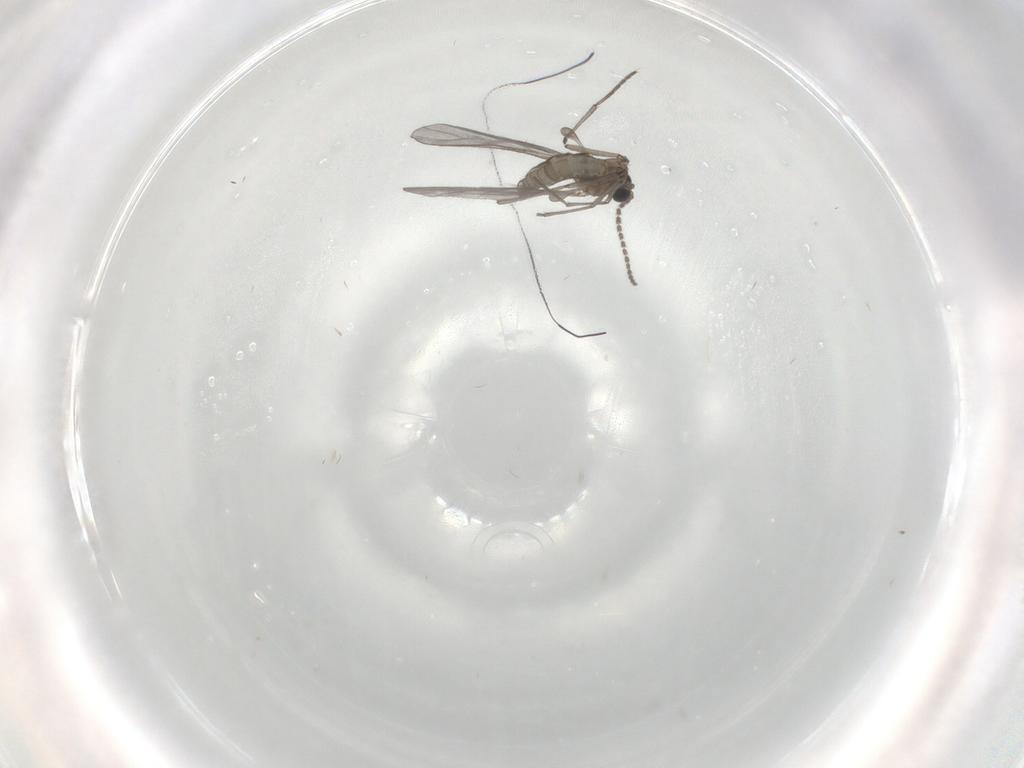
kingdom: Animalia
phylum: Arthropoda
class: Insecta
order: Diptera
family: Sciaridae
